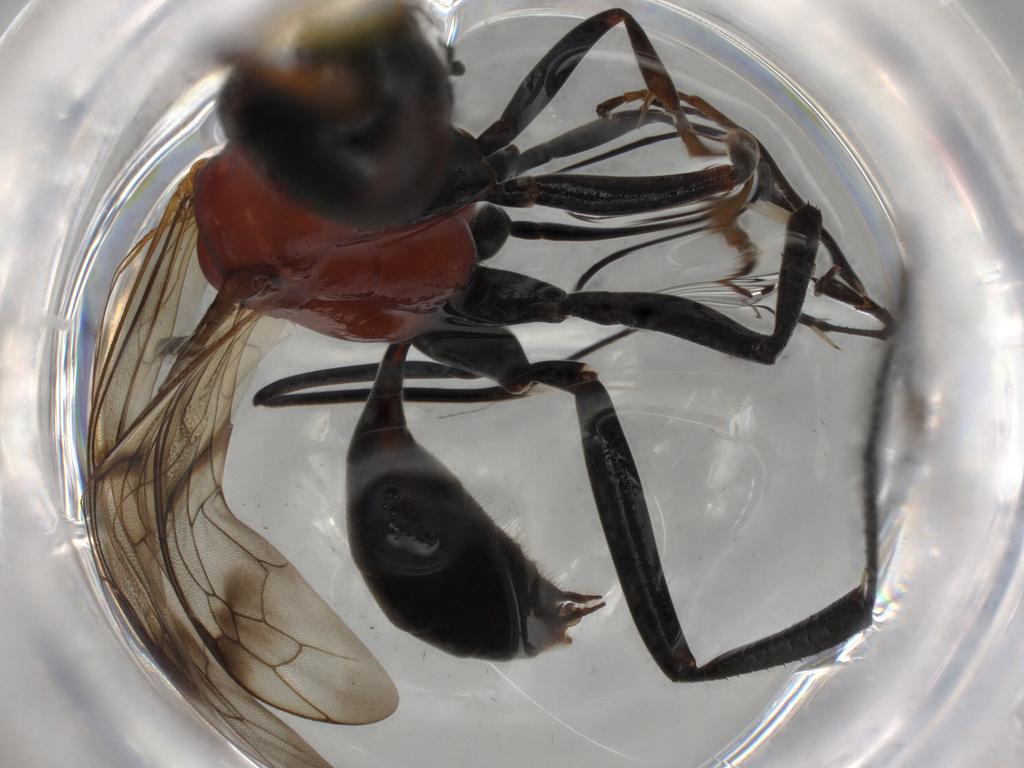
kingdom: Animalia
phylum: Arthropoda
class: Insecta
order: Hymenoptera
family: Pompilidae
